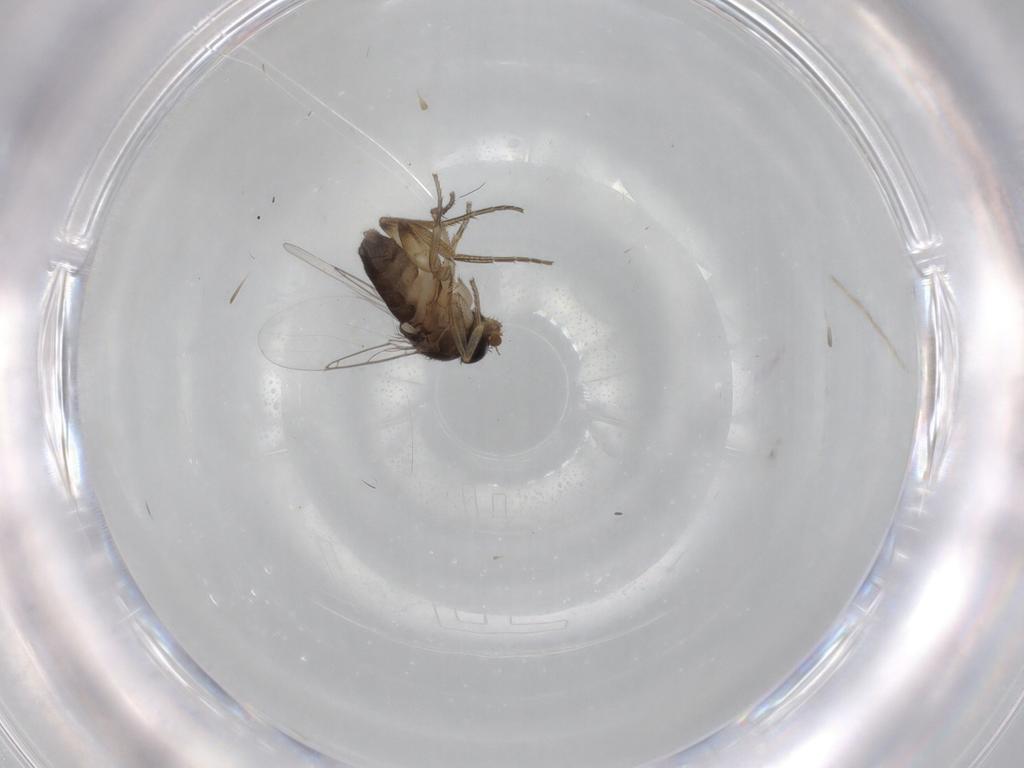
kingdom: Animalia
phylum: Arthropoda
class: Insecta
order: Diptera
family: Phoridae
